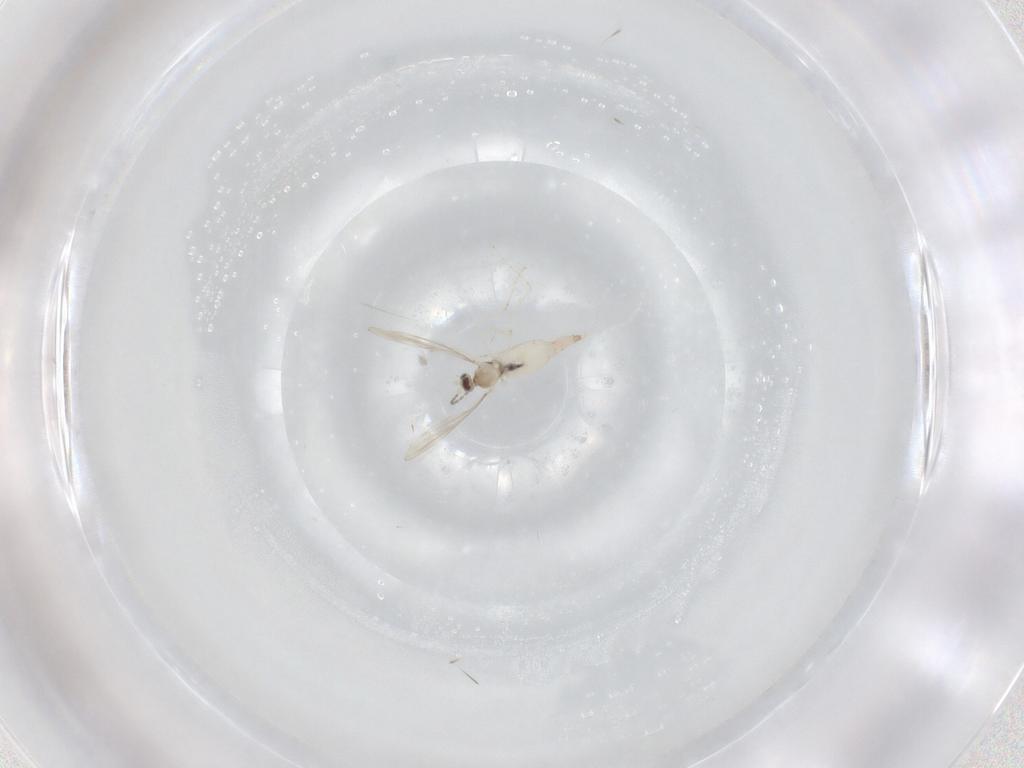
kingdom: Animalia
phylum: Arthropoda
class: Insecta
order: Diptera
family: Cecidomyiidae
